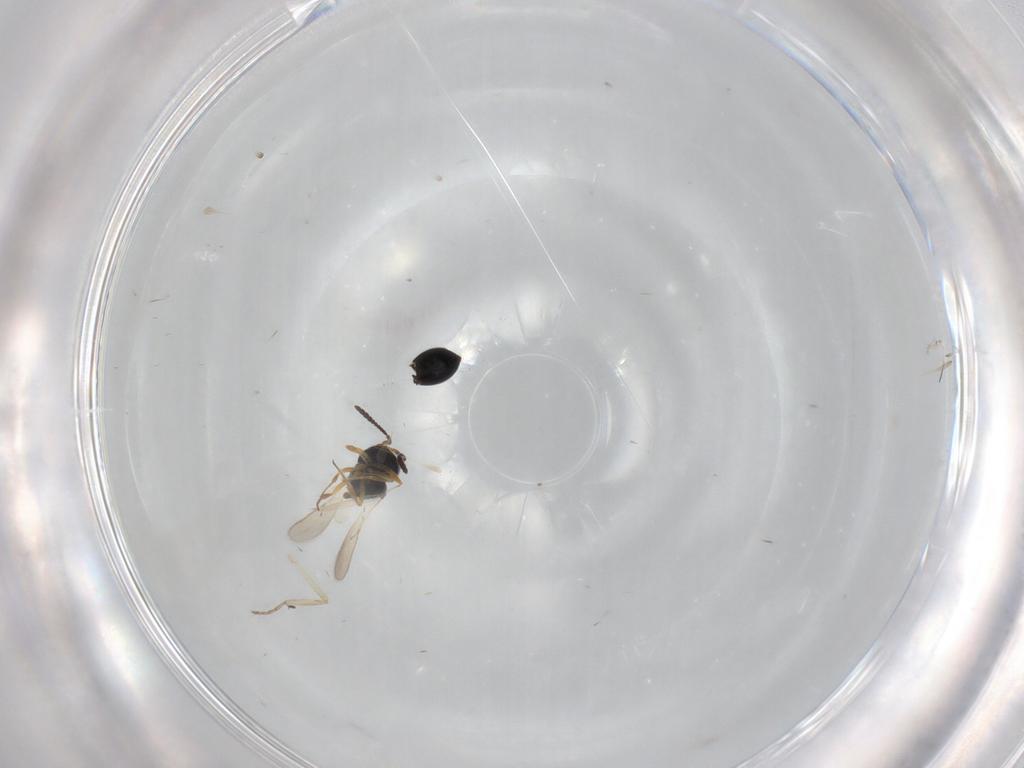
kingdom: Animalia
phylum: Arthropoda
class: Insecta
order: Hymenoptera
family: Scelionidae
